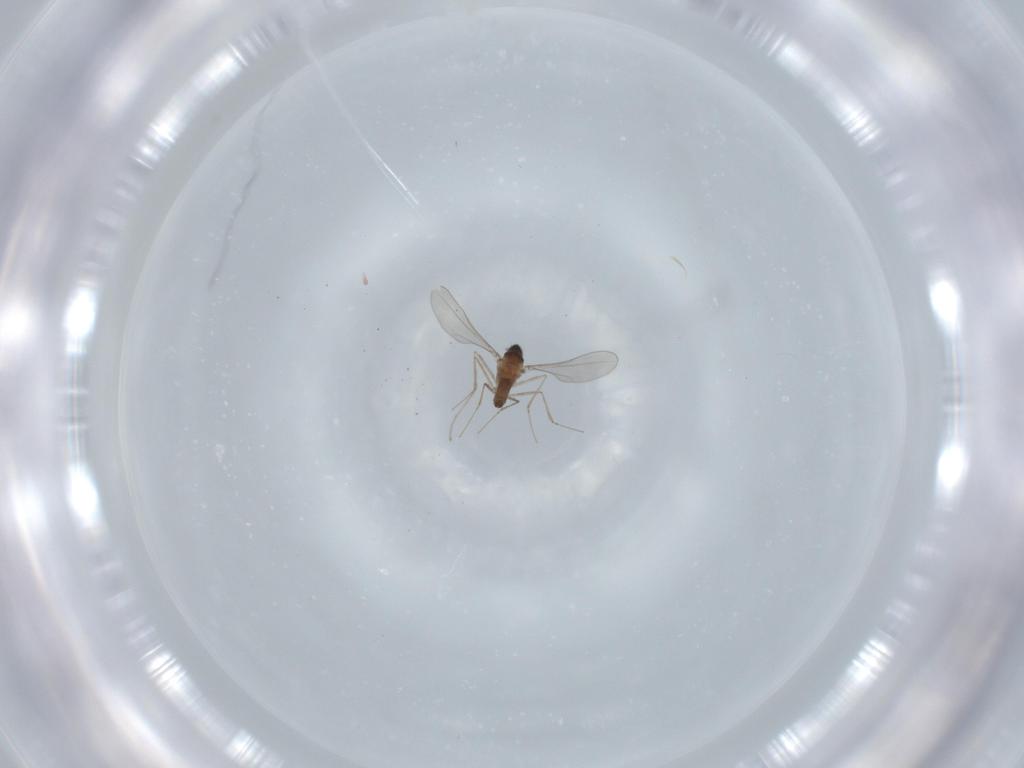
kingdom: Animalia
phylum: Arthropoda
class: Insecta
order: Diptera
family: Cecidomyiidae
